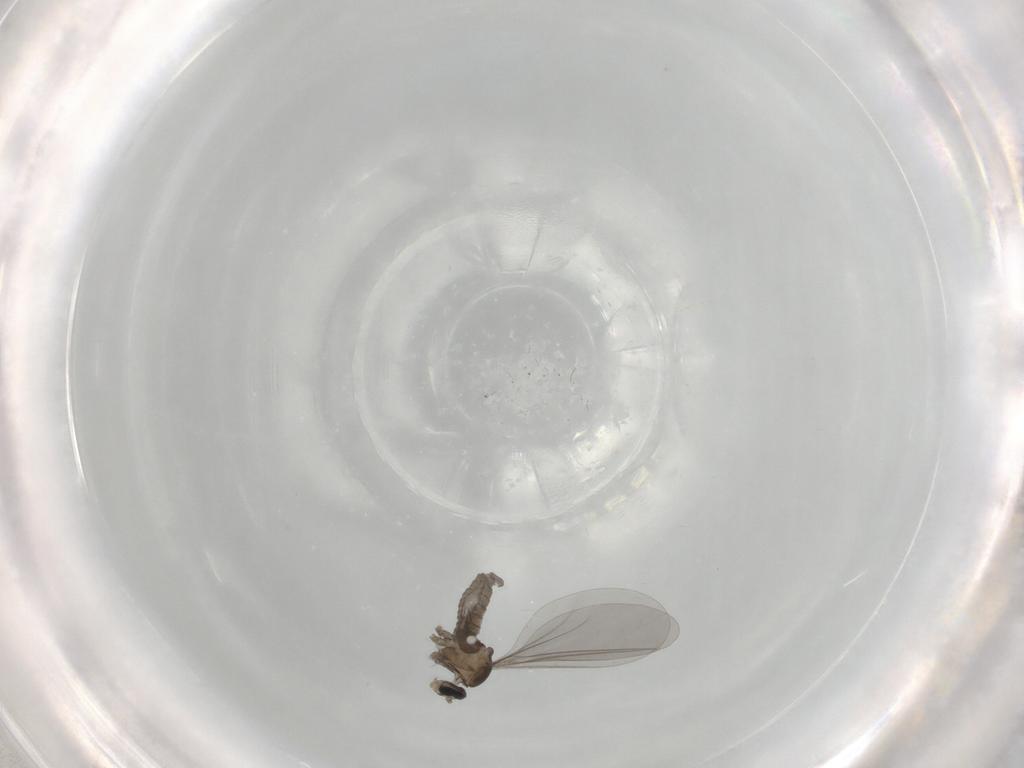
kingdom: Animalia
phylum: Arthropoda
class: Insecta
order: Diptera
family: Cecidomyiidae
